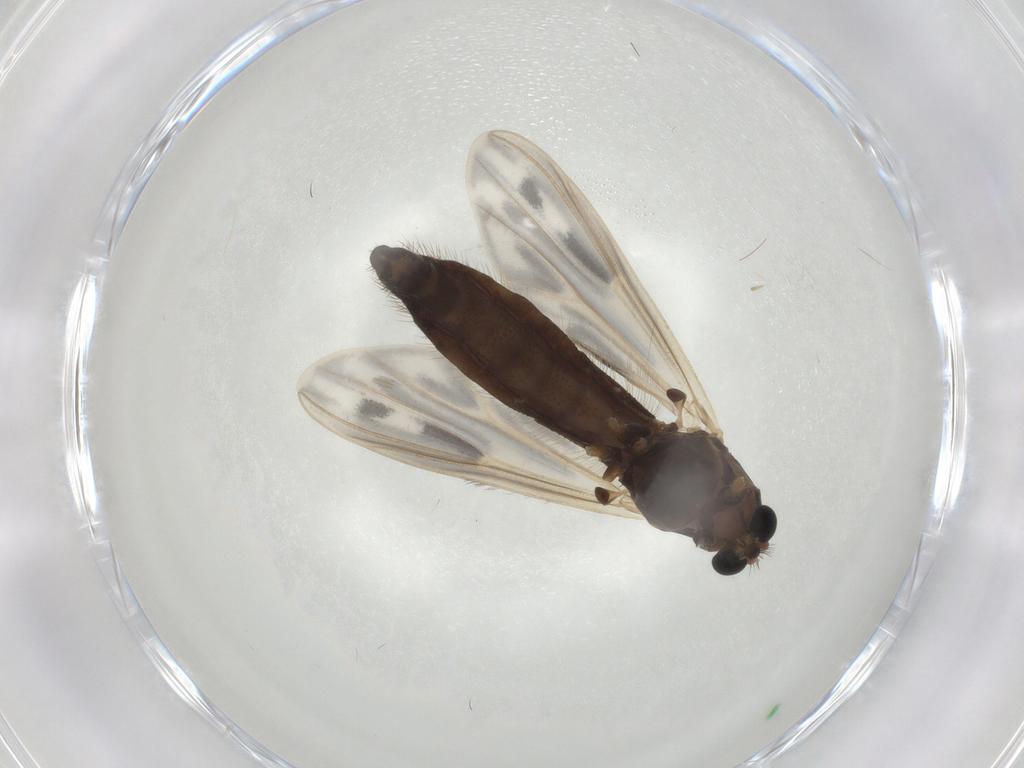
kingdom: Animalia
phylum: Arthropoda
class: Insecta
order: Diptera
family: Chironomidae
